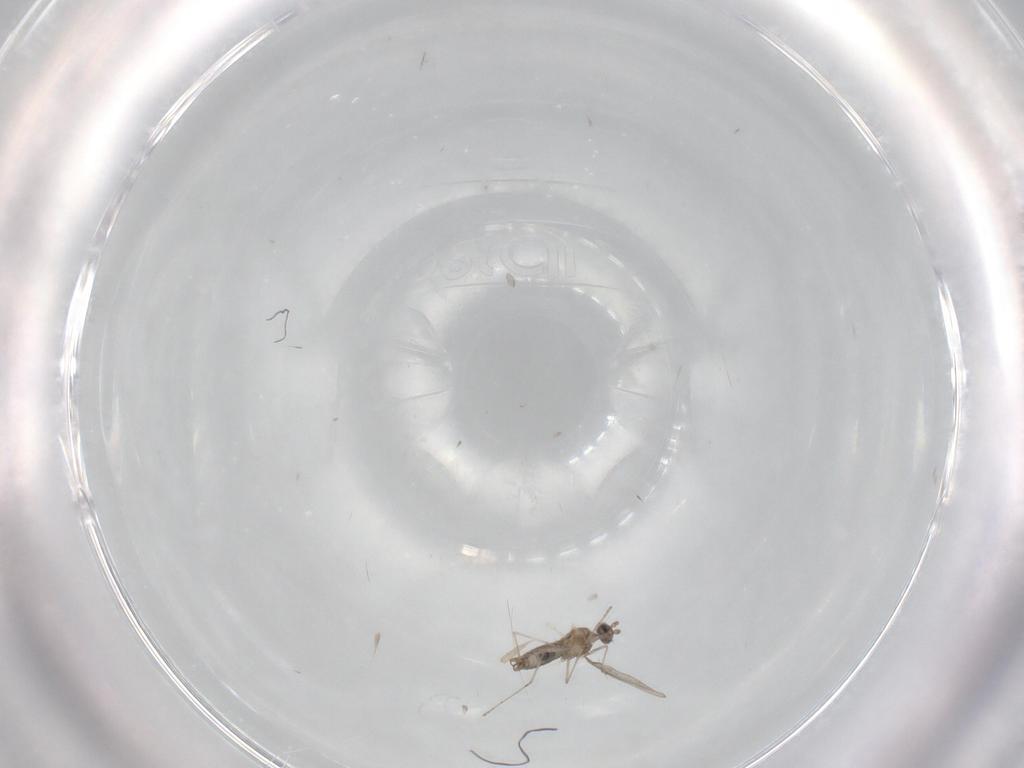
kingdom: Animalia
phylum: Arthropoda
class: Insecta
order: Diptera
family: Cecidomyiidae
